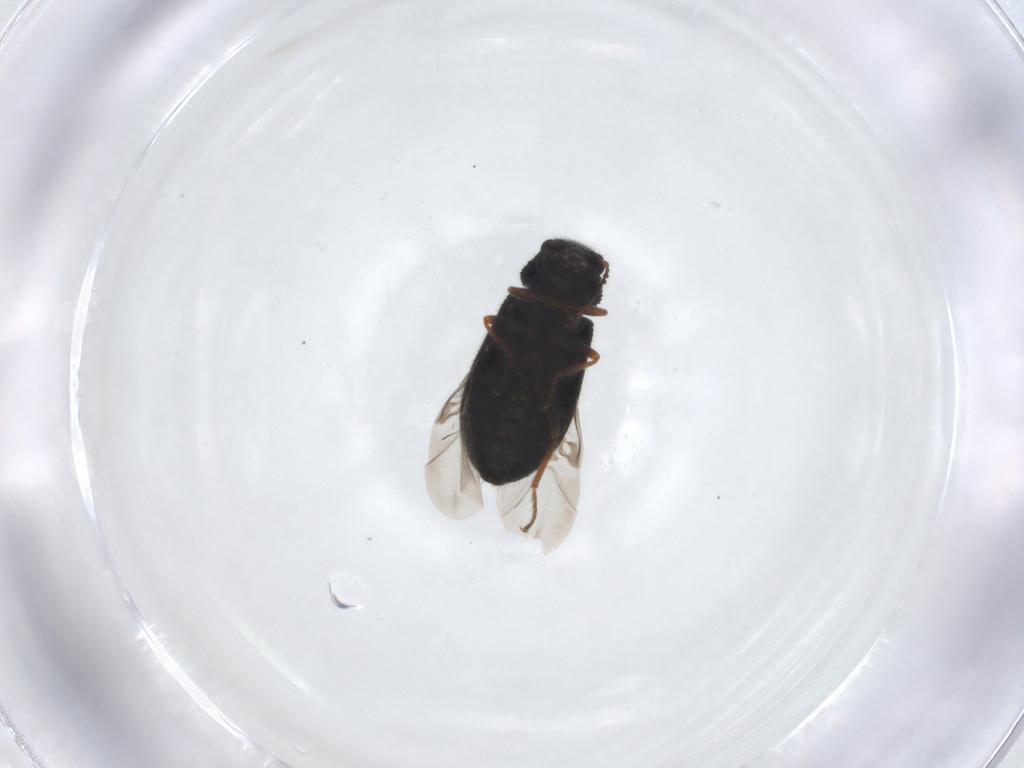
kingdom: Animalia
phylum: Arthropoda
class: Insecta
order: Coleoptera
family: Melyridae
